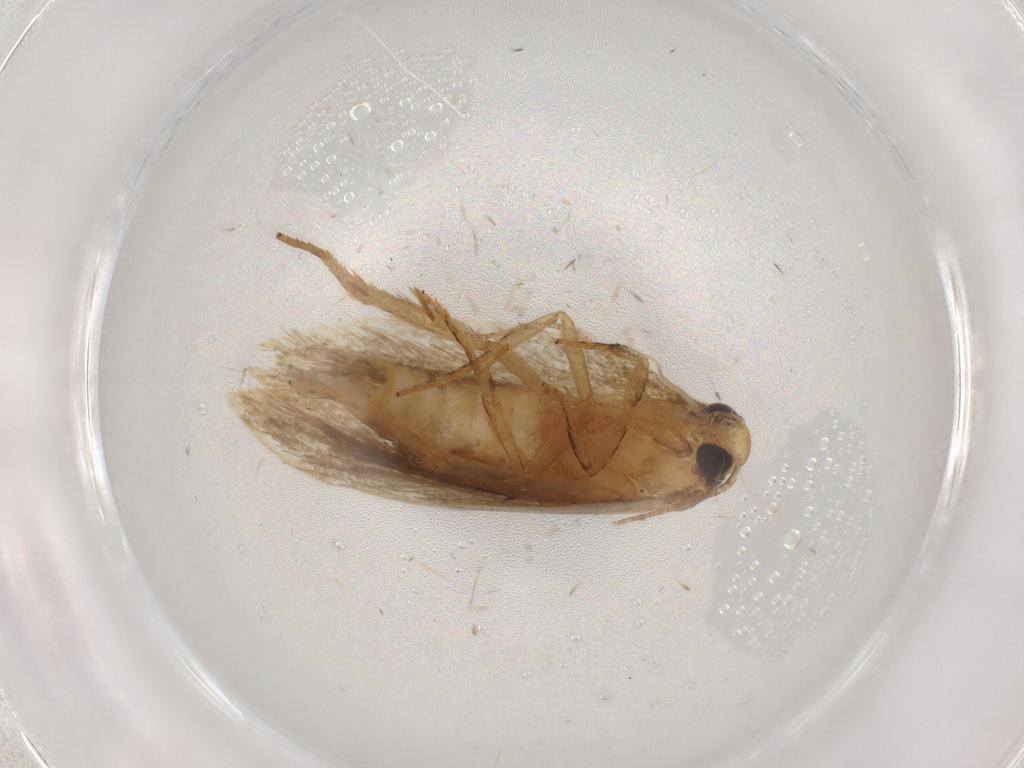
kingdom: Animalia
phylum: Arthropoda
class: Insecta
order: Lepidoptera
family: Depressariidae
